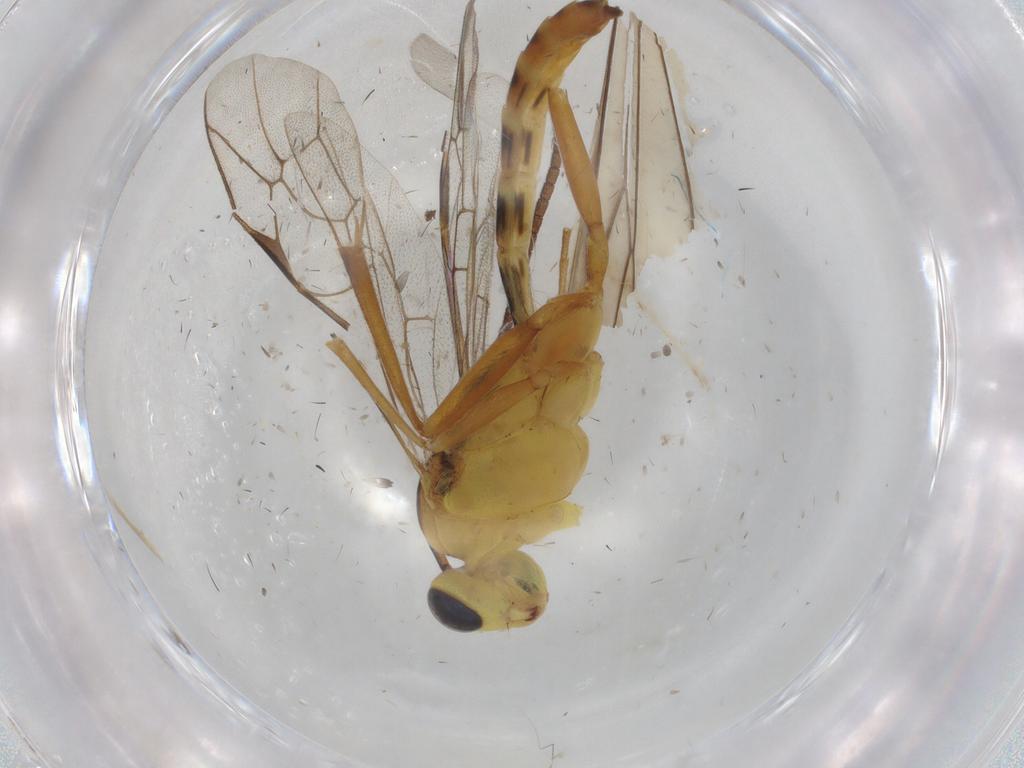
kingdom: Animalia
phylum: Arthropoda
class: Insecta
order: Hymenoptera
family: Ichneumonidae
